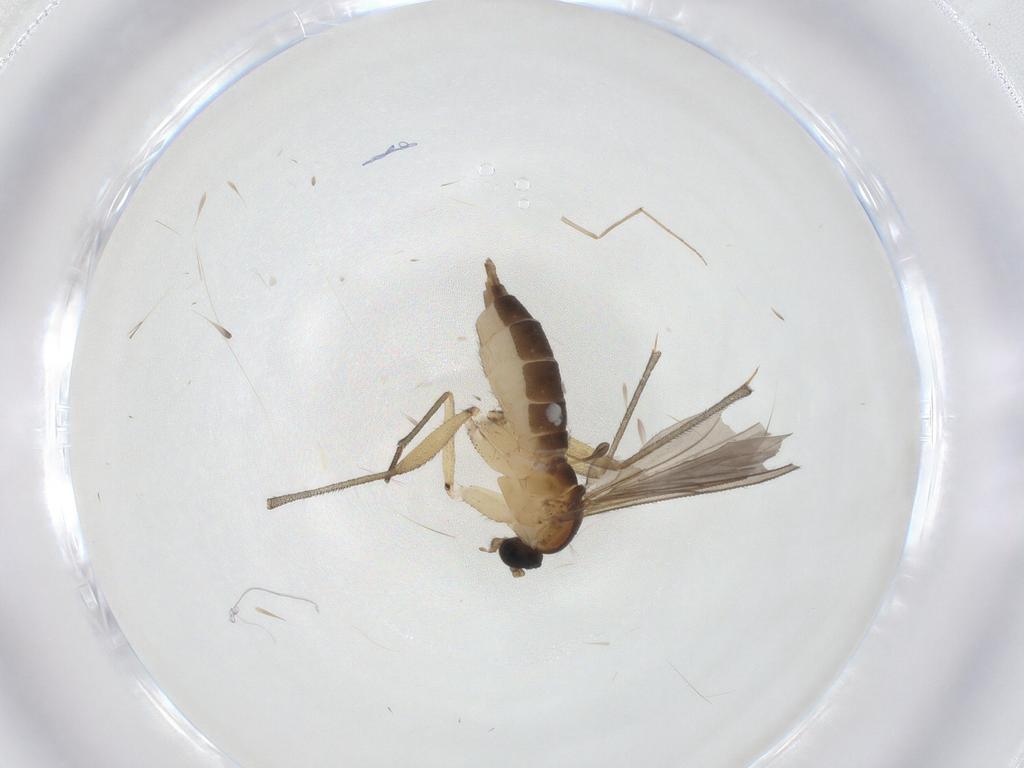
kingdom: Animalia
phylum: Arthropoda
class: Insecta
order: Diptera
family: Sciaridae
